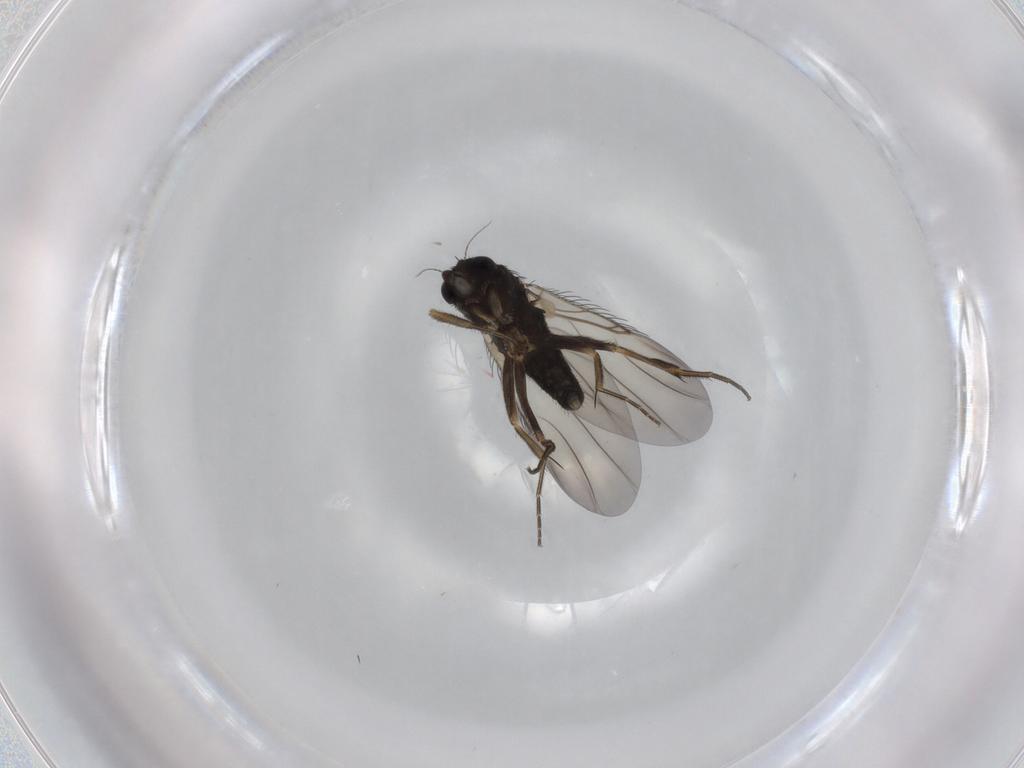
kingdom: Animalia
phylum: Arthropoda
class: Insecta
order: Diptera
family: Phoridae
